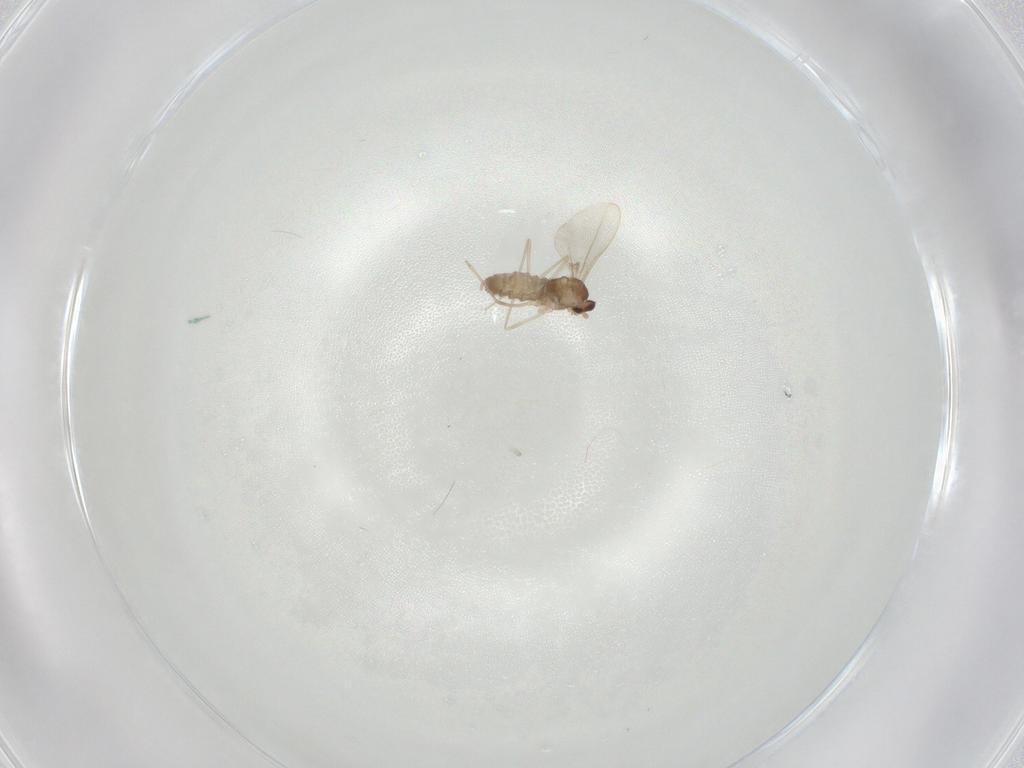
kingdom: Animalia
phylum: Arthropoda
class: Insecta
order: Diptera
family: Cecidomyiidae
